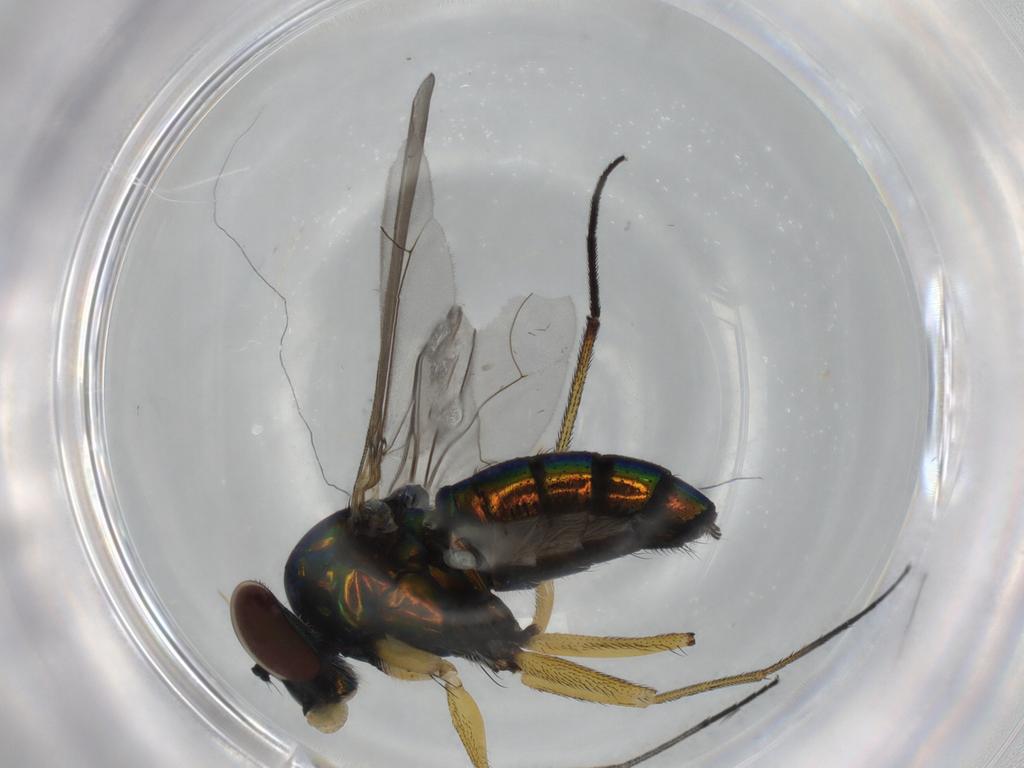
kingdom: Animalia
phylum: Arthropoda
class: Insecta
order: Diptera
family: Dolichopodidae
